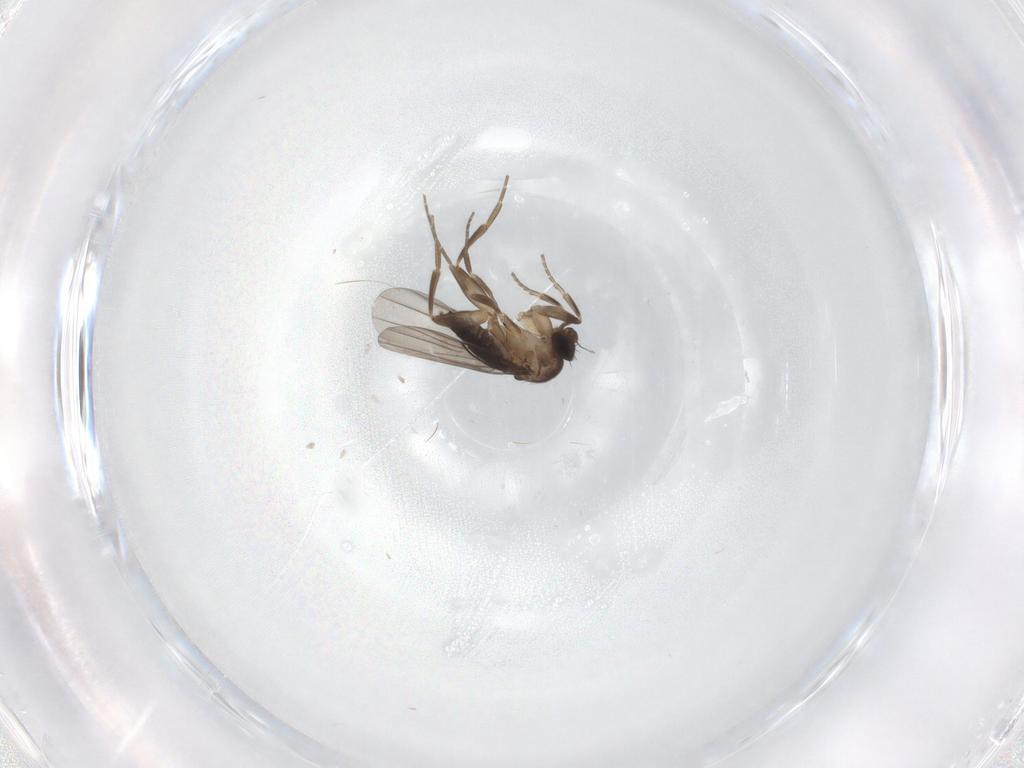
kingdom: Animalia
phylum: Arthropoda
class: Insecta
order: Diptera
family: Cecidomyiidae
